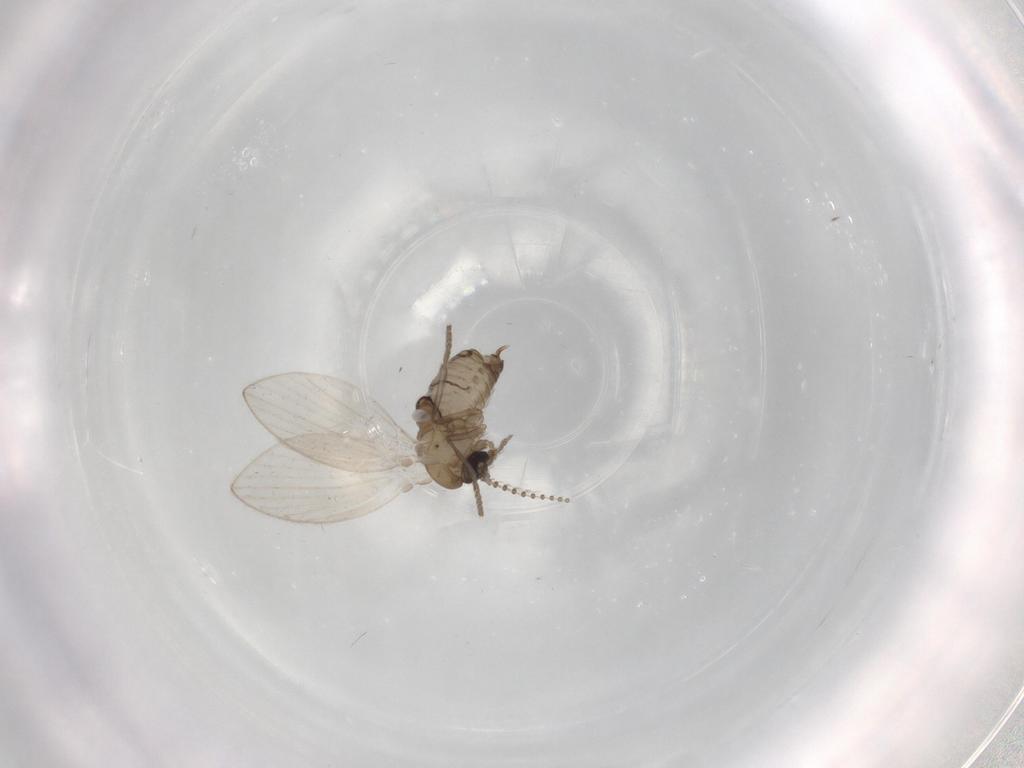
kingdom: Animalia
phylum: Arthropoda
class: Insecta
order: Diptera
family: Psychodidae
